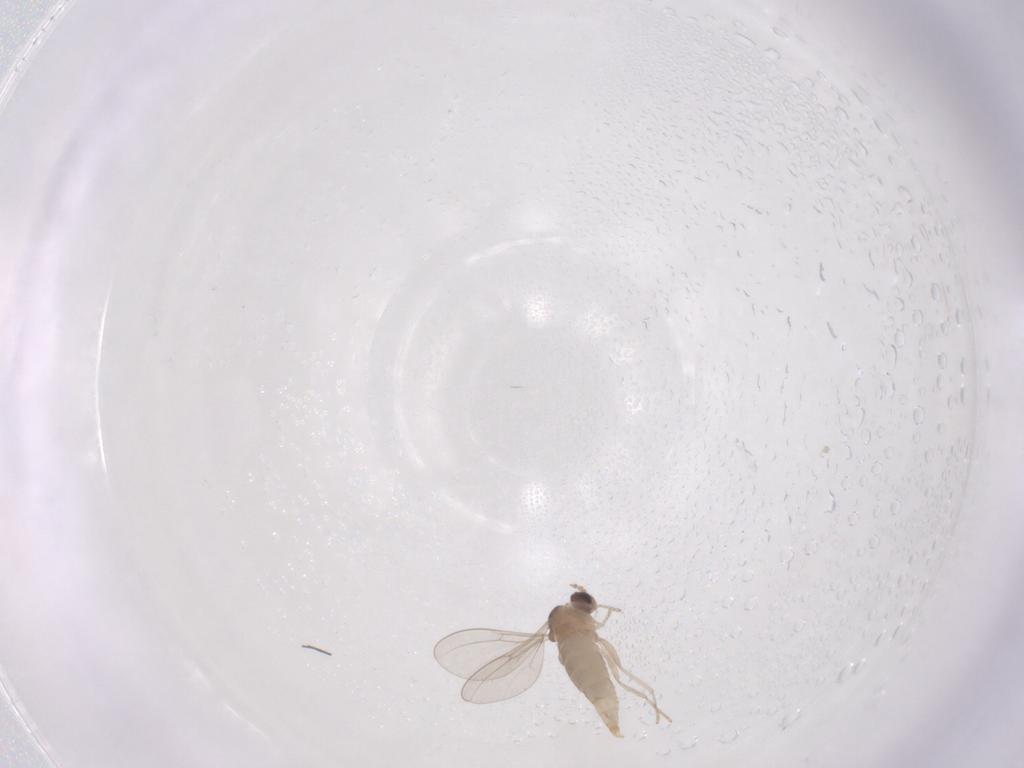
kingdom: Animalia
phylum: Arthropoda
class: Insecta
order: Diptera
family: Cecidomyiidae
